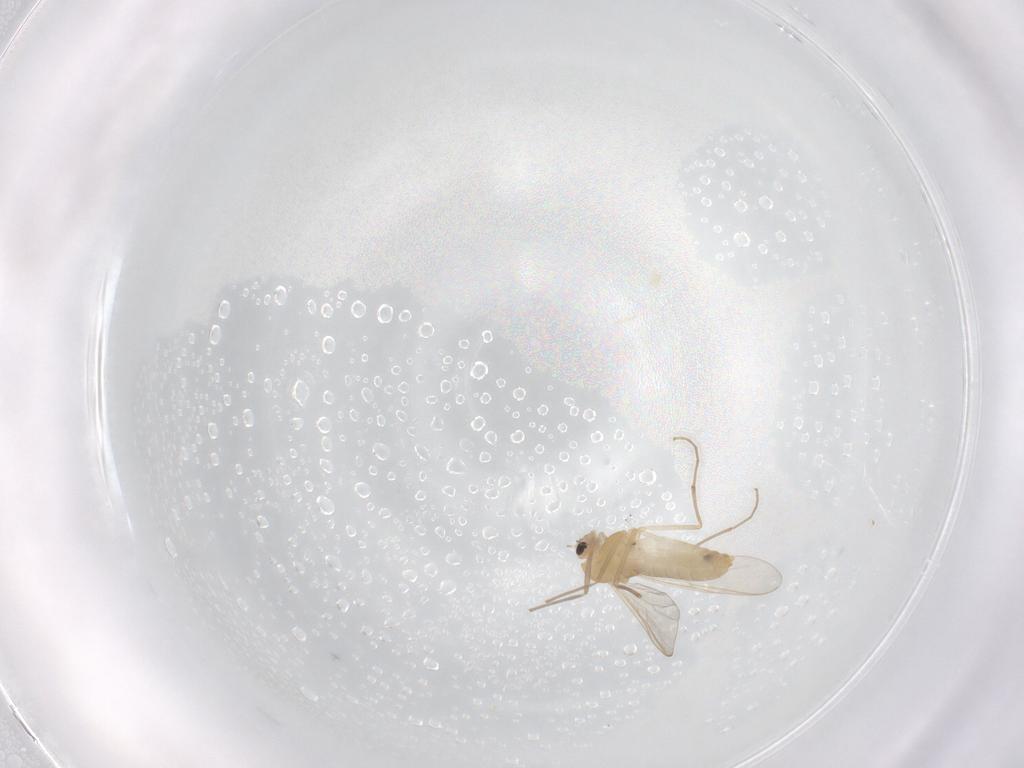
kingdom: Animalia
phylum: Arthropoda
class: Insecta
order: Diptera
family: Chironomidae
